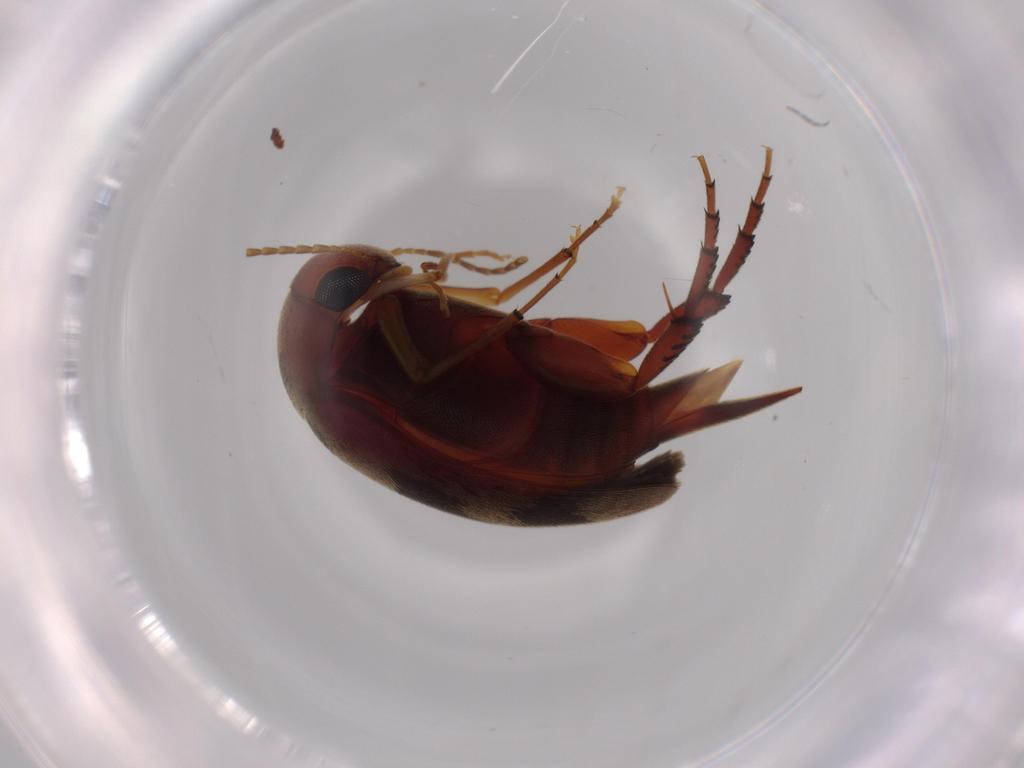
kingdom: Animalia
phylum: Arthropoda
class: Insecta
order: Coleoptera
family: Mordellidae
